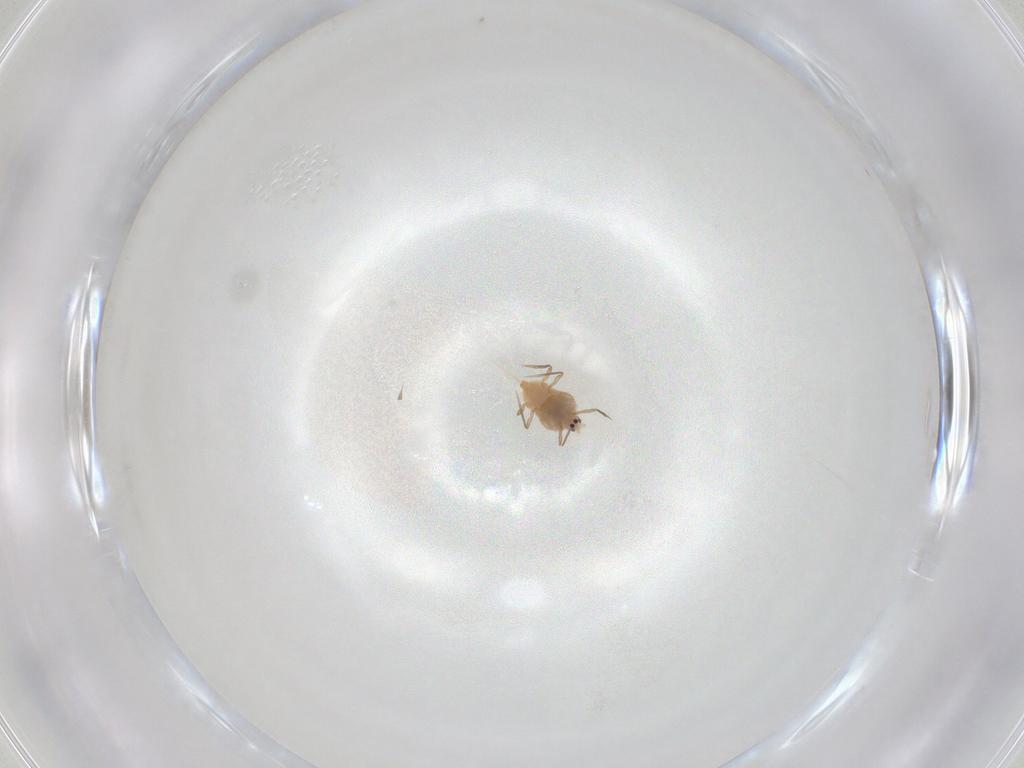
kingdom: Animalia
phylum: Arthropoda
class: Insecta
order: Hemiptera
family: Diaspididae
